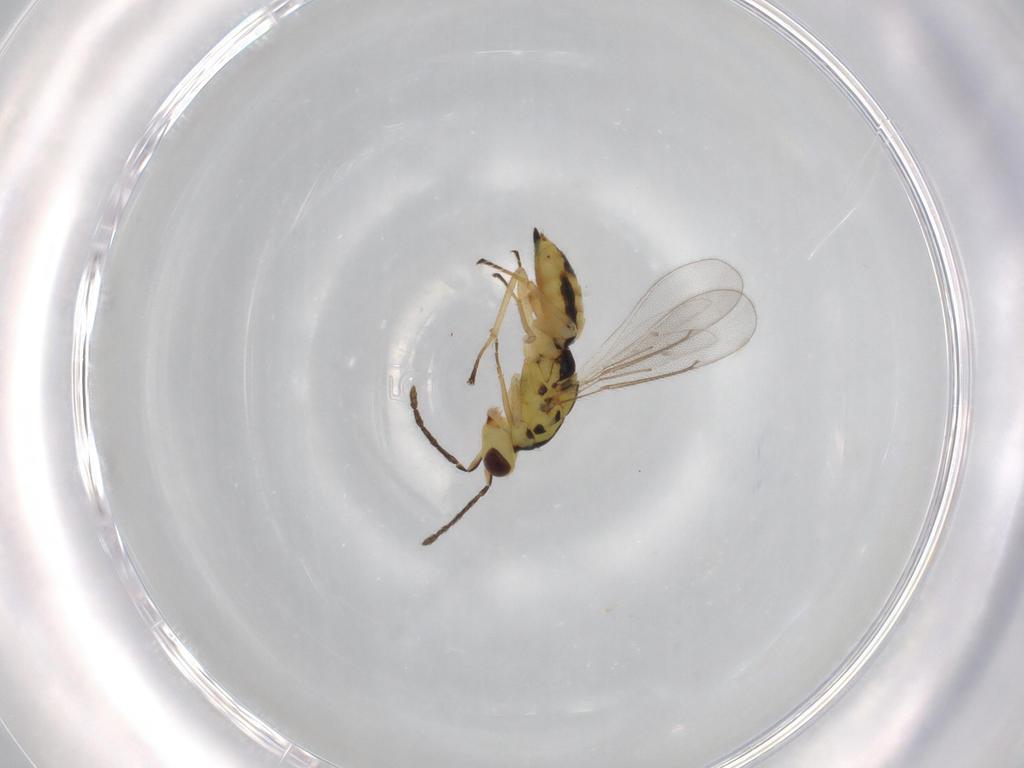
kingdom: Animalia
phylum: Arthropoda
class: Insecta
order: Hymenoptera
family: Eulophidae
